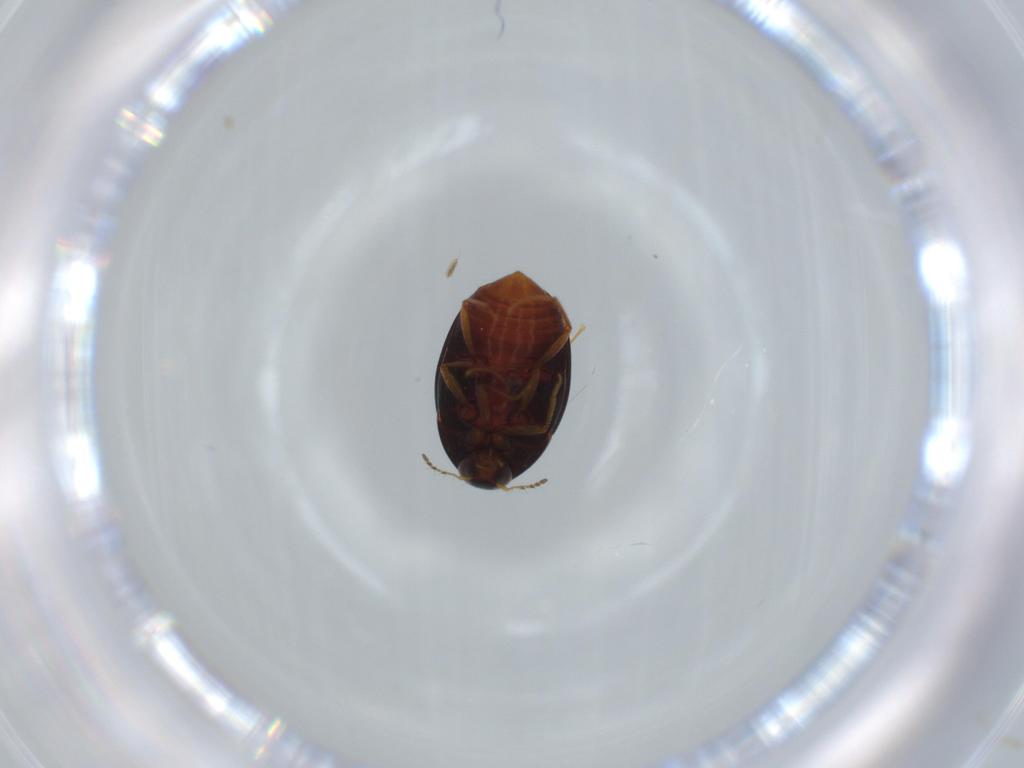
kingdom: Animalia
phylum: Arthropoda
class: Insecta
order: Coleoptera
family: Staphylinidae
